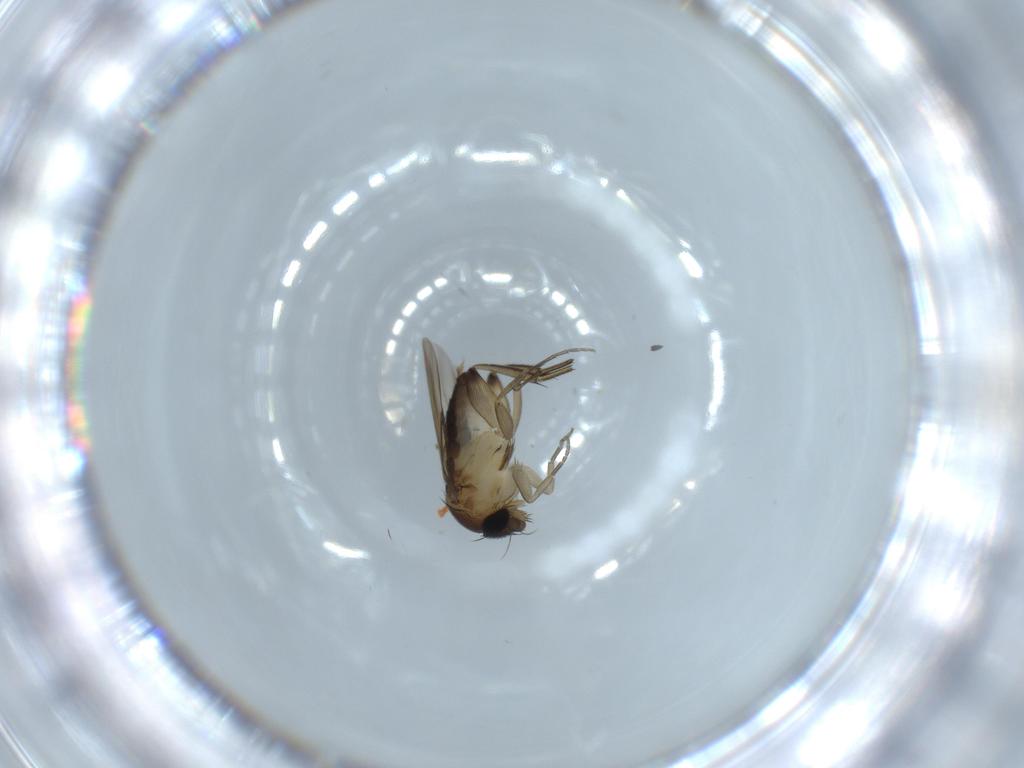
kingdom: Animalia
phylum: Arthropoda
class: Insecta
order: Diptera
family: Phoridae
